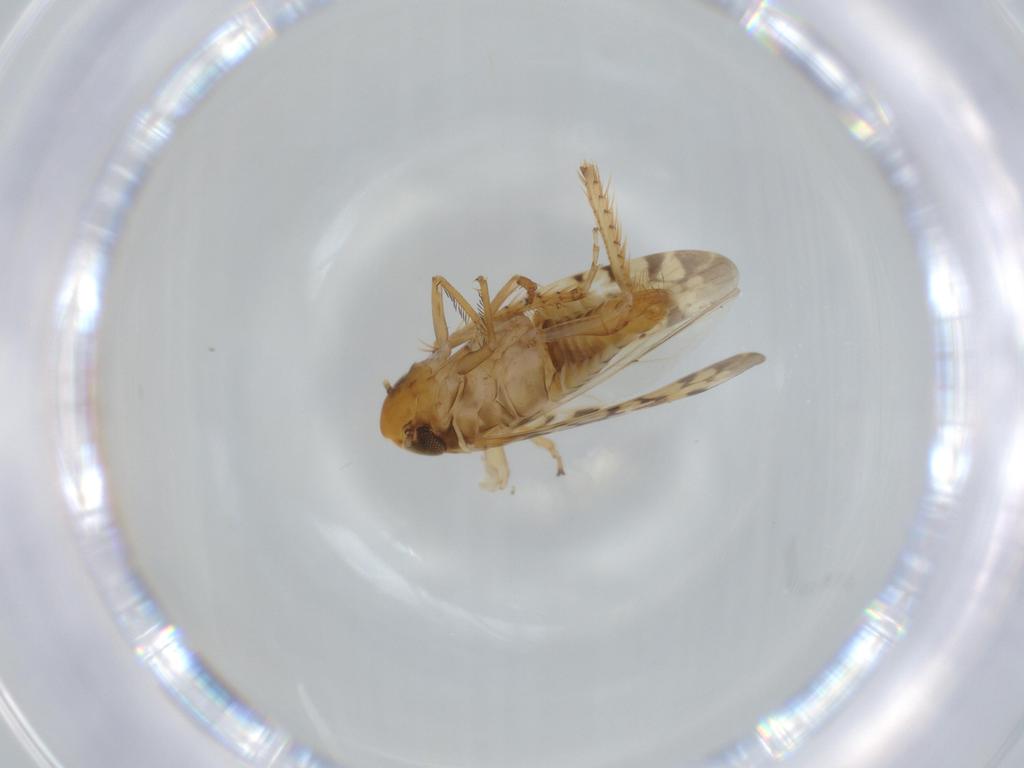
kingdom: Animalia
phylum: Arthropoda
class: Insecta
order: Hemiptera
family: Cicadellidae
